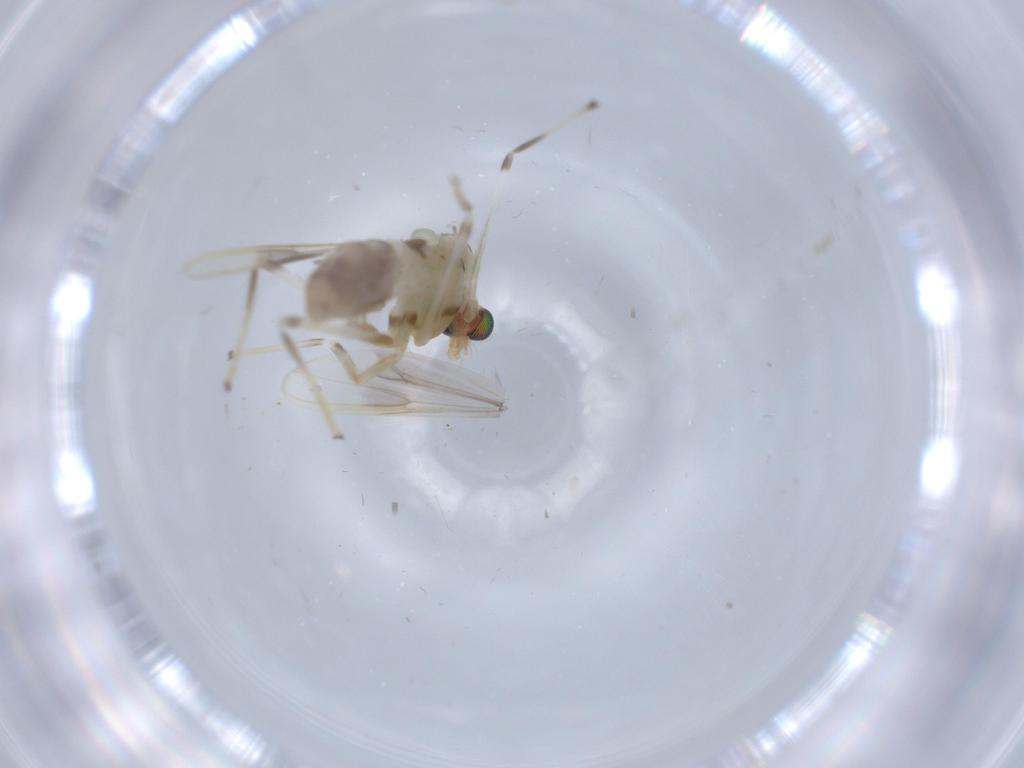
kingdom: Animalia
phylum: Arthropoda
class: Insecta
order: Diptera
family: Chironomidae
